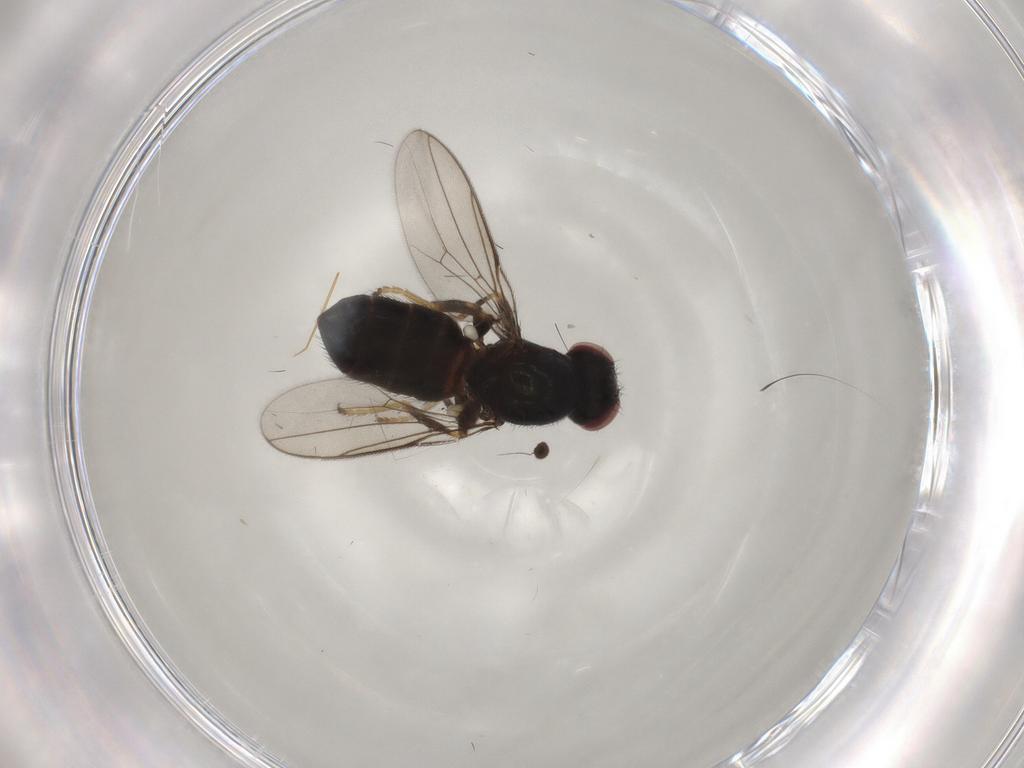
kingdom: Animalia
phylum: Arthropoda
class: Insecta
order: Diptera
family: Chloropidae
